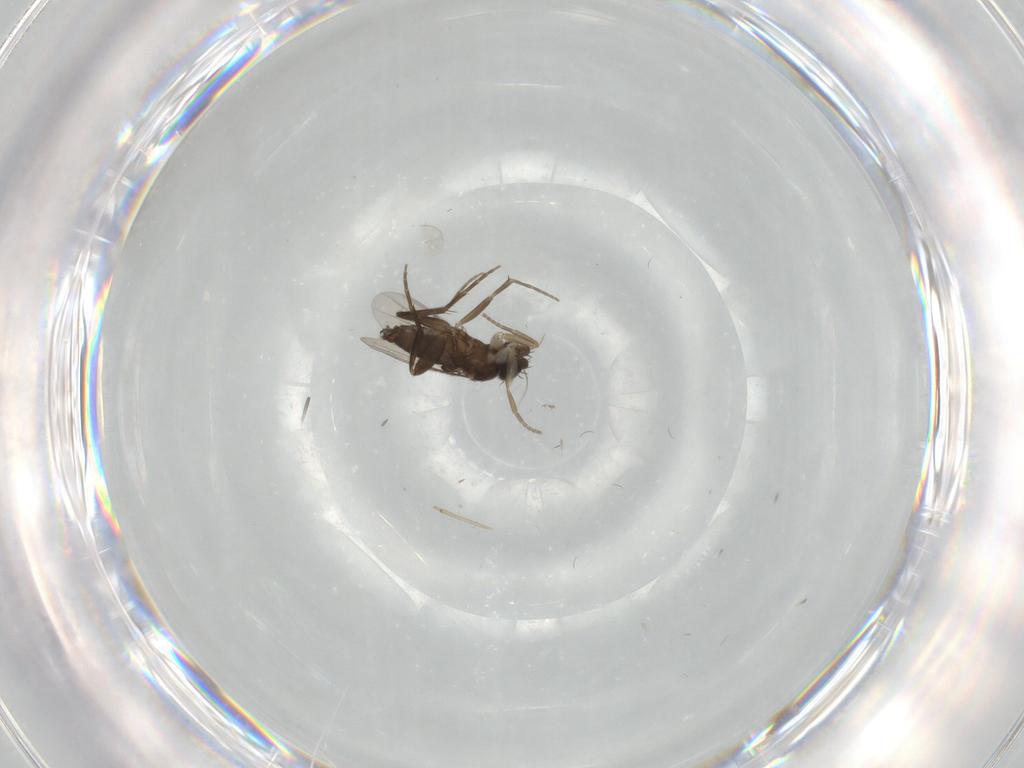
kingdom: Animalia
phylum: Arthropoda
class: Insecta
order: Diptera
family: Phoridae
